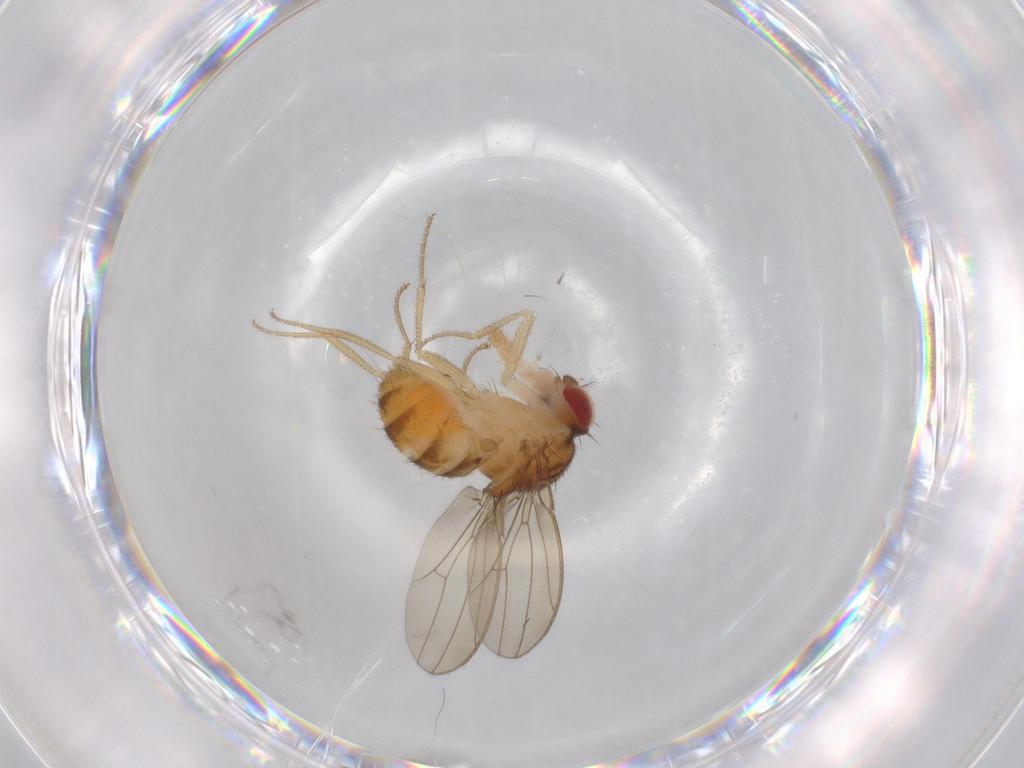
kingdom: Animalia
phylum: Arthropoda
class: Insecta
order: Diptera
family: Drosophilidae
